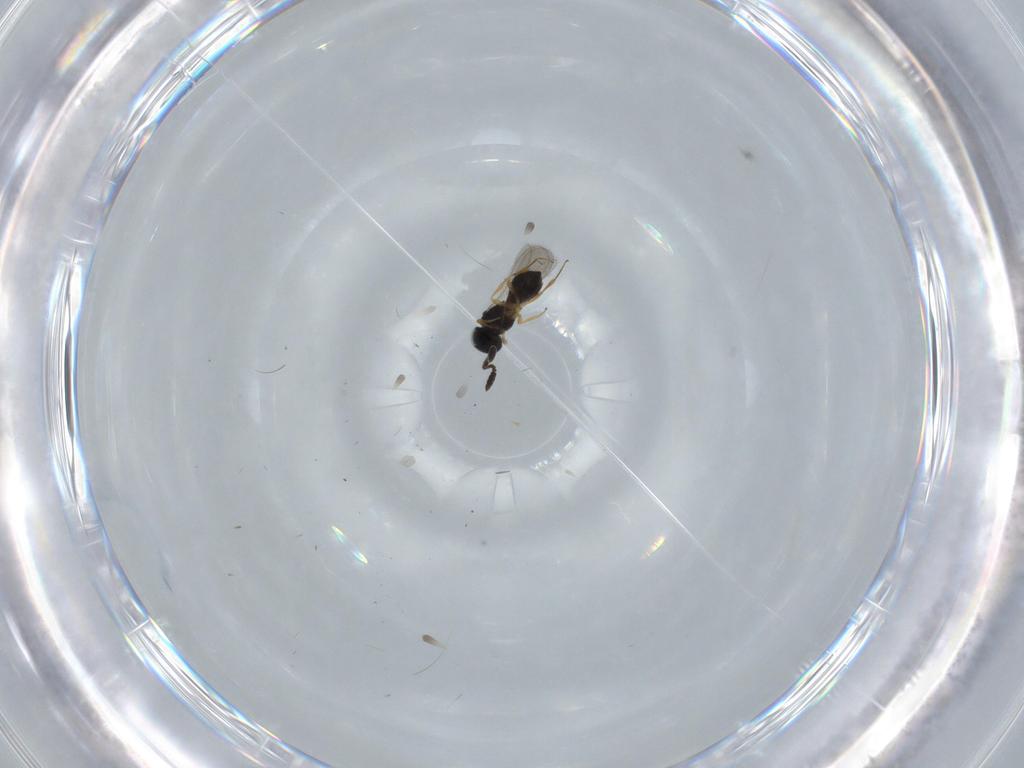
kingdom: Animalia
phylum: Arthropoda
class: Insecta
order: Hymenoptera
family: Scelionidae
